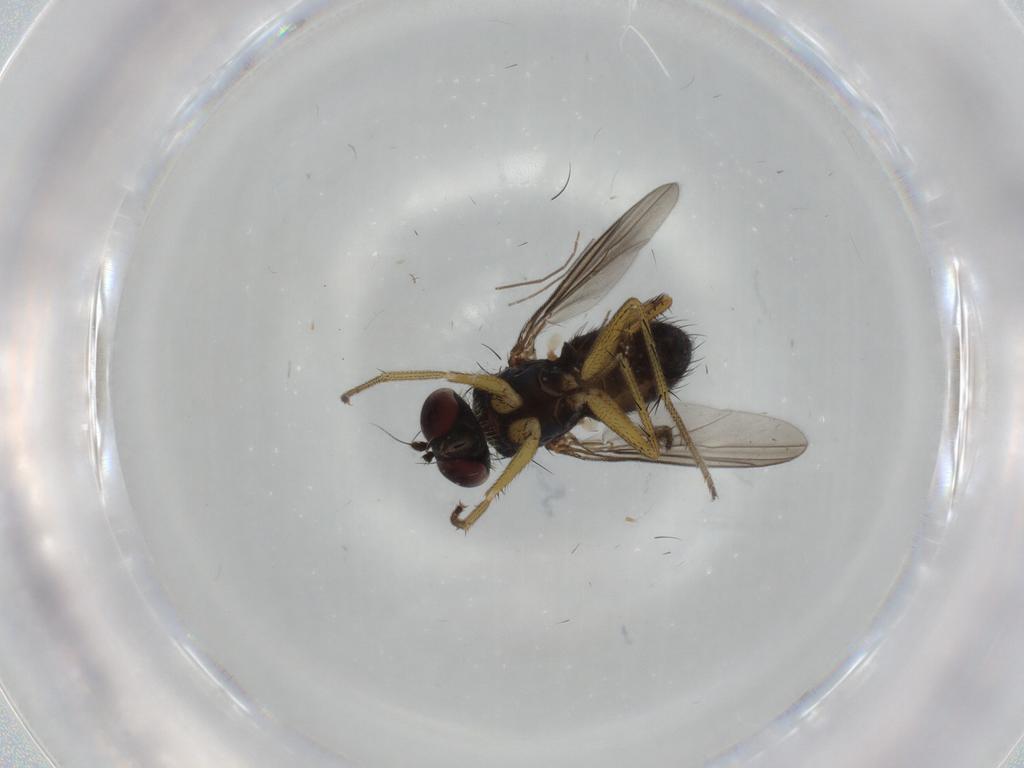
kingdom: Animalia
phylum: Arthropoda
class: Insecta
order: Diptera
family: Dolichopodidae
